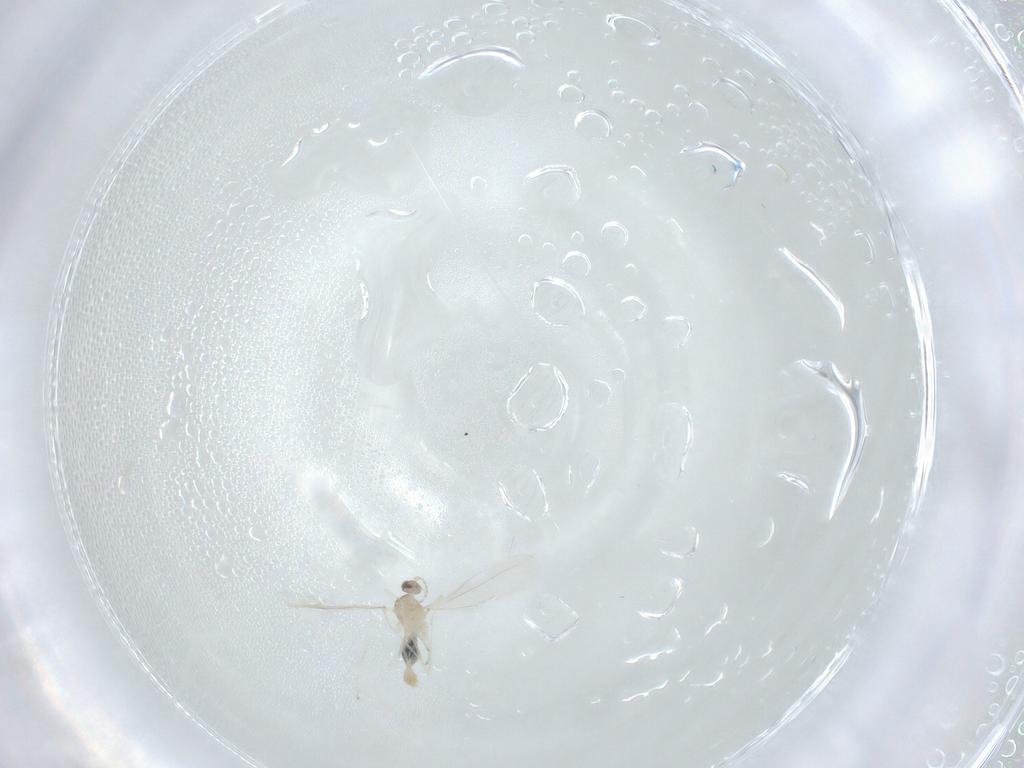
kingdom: Animalia
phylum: Arthropoda
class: Insecta
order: Diptera
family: Cecidomyiidae
